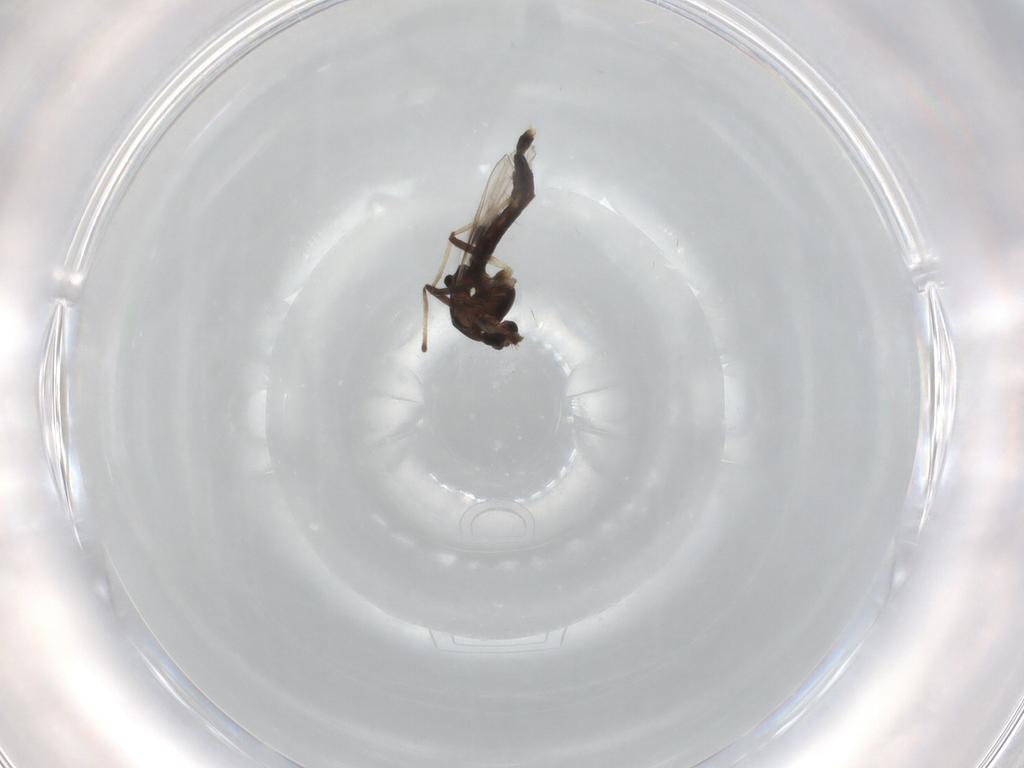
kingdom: Animalia
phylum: Arthropoda
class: Insecta
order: Diptera
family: Chironomidae
